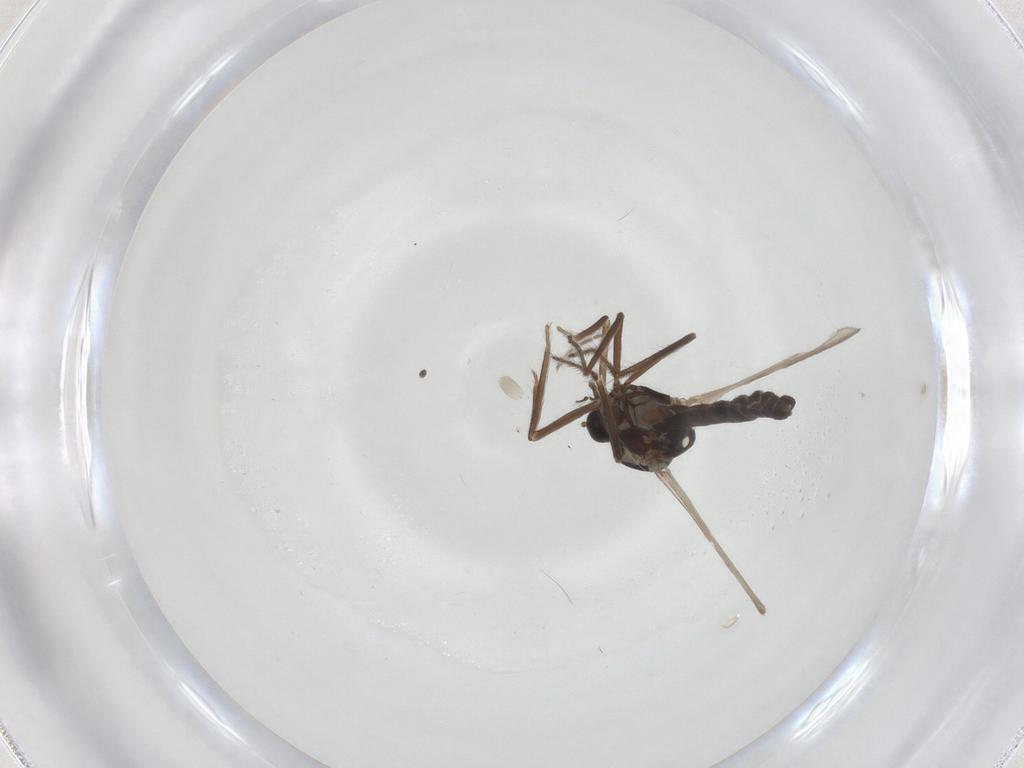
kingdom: Animalia
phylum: Arthropoda
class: Insecta
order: Diptera
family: Ceratopogonidae
